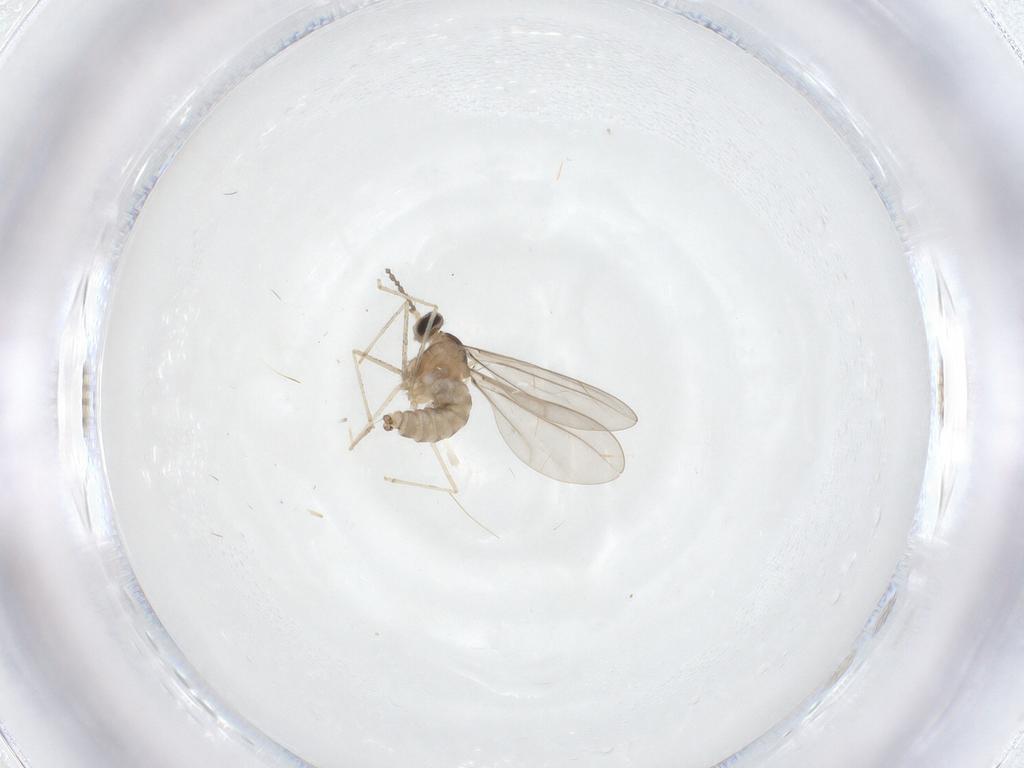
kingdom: Animalia
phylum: Arthropoda
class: Insecta
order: Diptera
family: Cecidomyiidae
